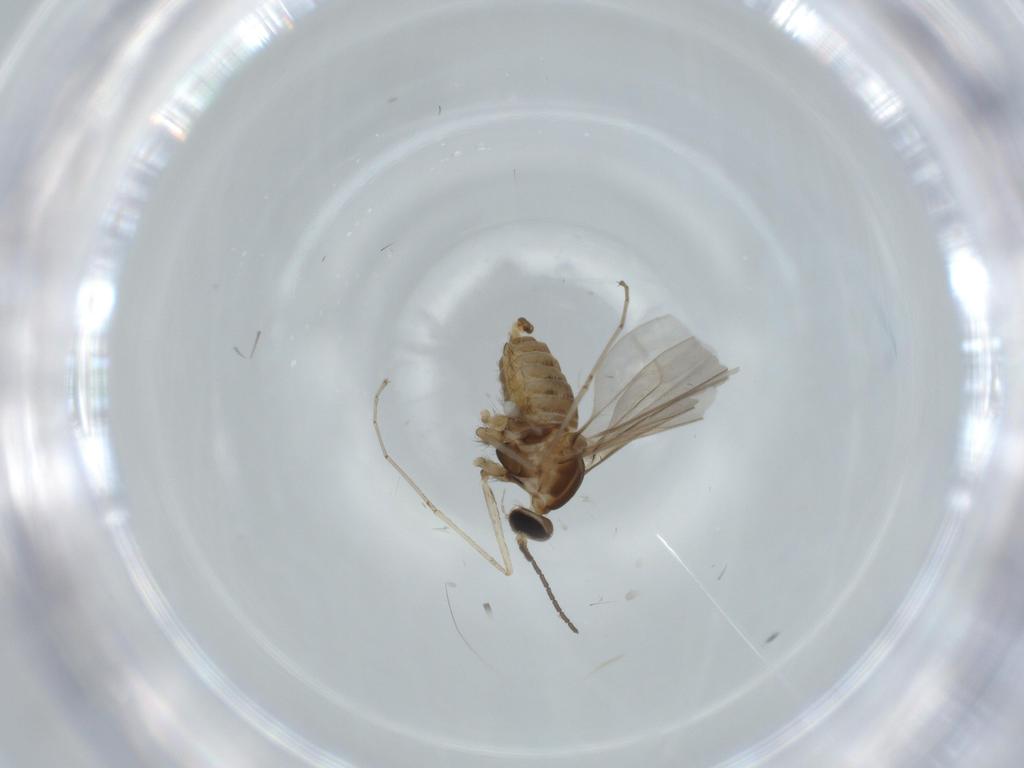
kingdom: Animalia
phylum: Arthropoda
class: Insecta
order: Diptera
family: Cecidomyiidae
